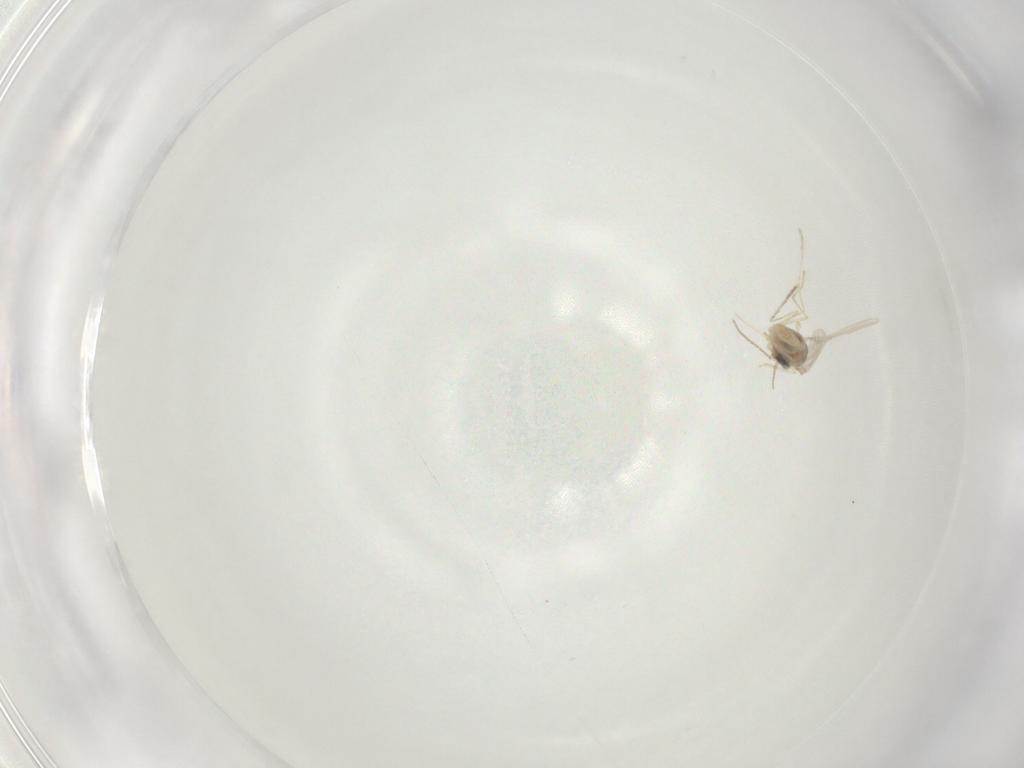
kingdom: Animalia
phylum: Arthropoda
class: Insecta
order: Diptera
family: Cecidomyiidae
